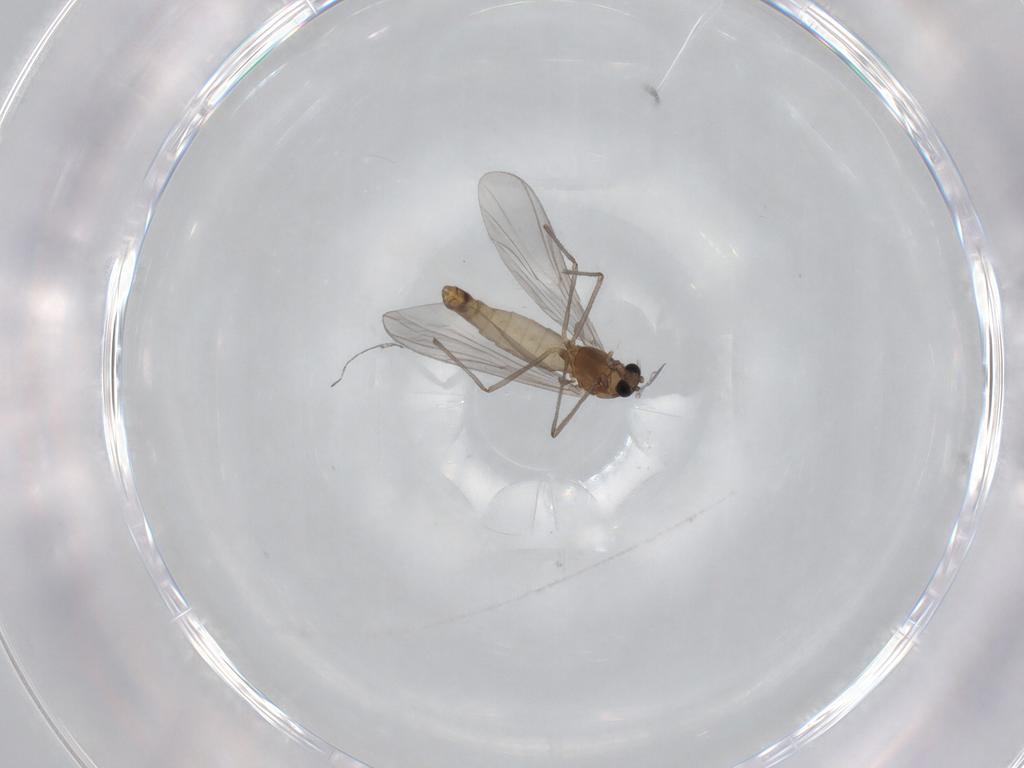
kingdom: Animalia
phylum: Arthropoda
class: Insecta
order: Diptera
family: Chironomidae
